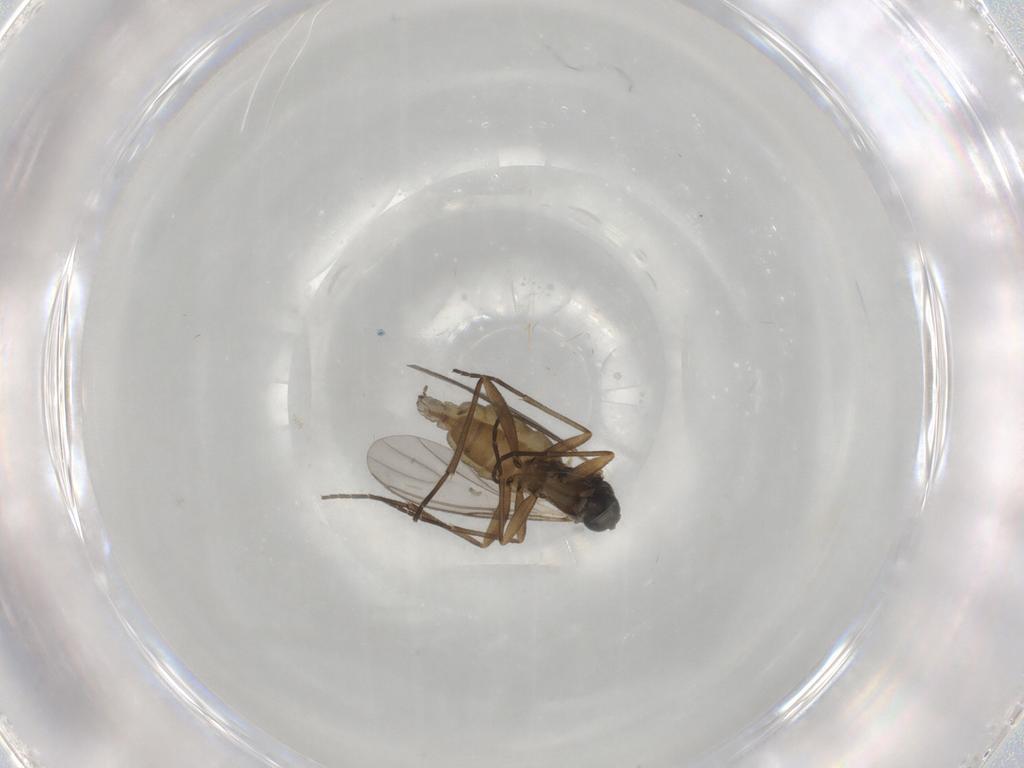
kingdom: Animalia
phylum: Arthropoda
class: Insecta
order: Diptera
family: Sciaridae
